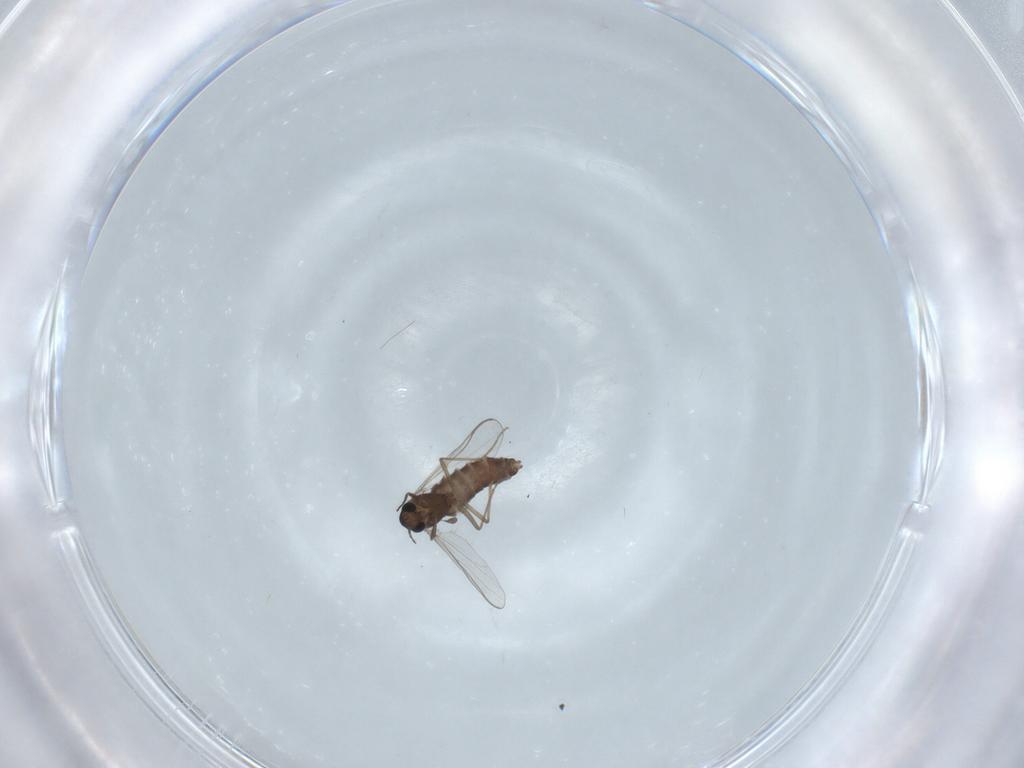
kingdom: Animalia
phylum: Arthropoda
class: Insecta
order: Diptera
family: Chironomidae
